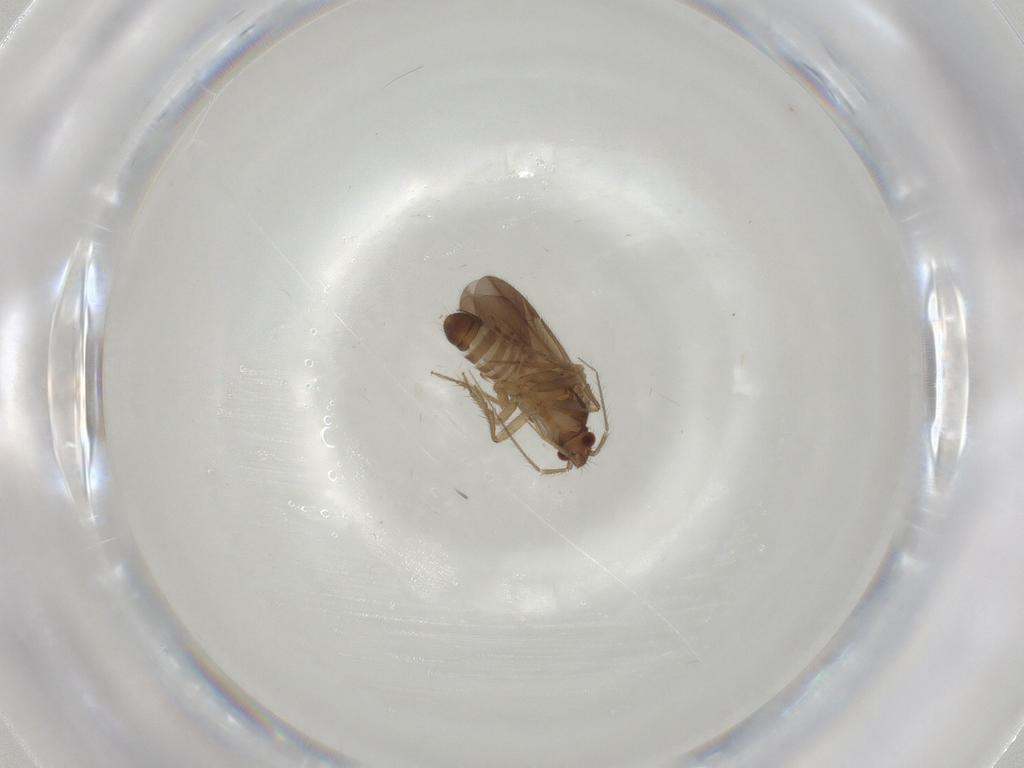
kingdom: Animalia
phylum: Arthropoda
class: Insecta
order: Hemiptera
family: Ceratocombidae
